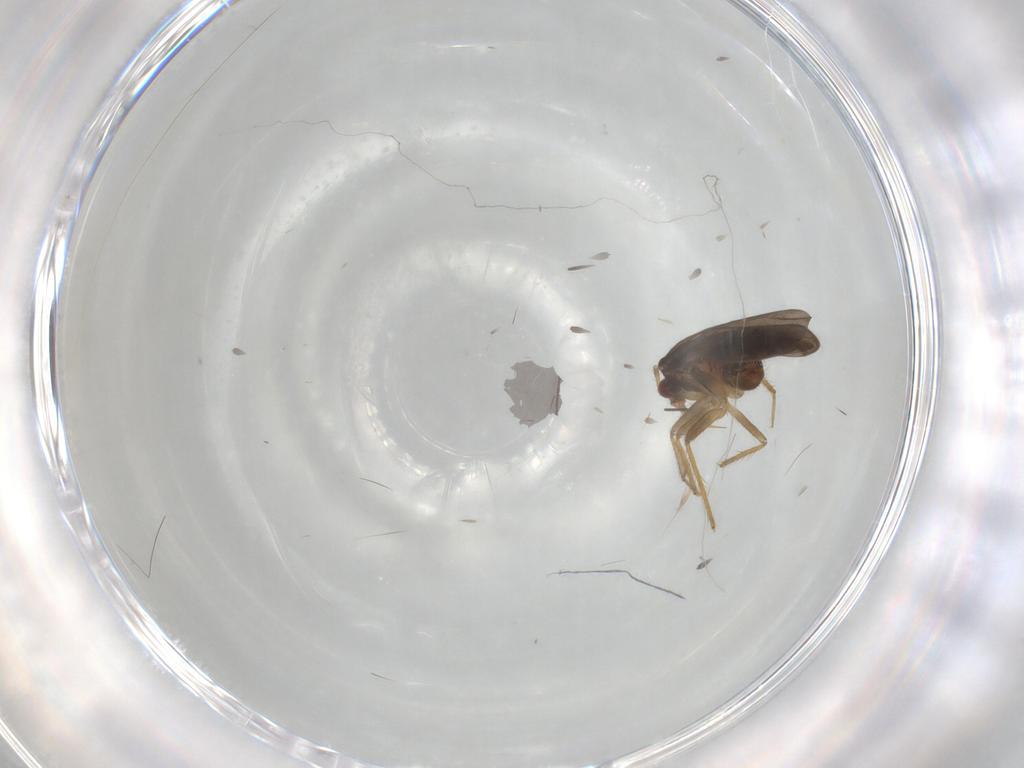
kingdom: Animalia
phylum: Arthropoda
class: Insecta
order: Hemiptera
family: Ceratocombidae
